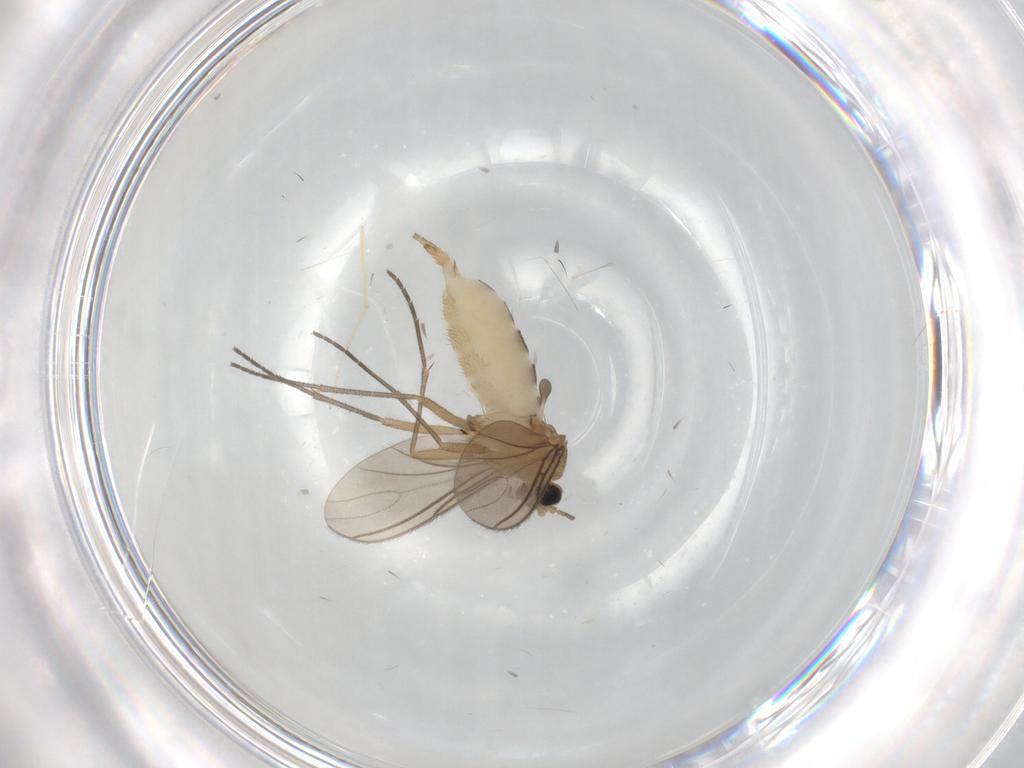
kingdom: Animalia
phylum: Arthropoda
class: Insecta
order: Diptera
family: Sciaridae
